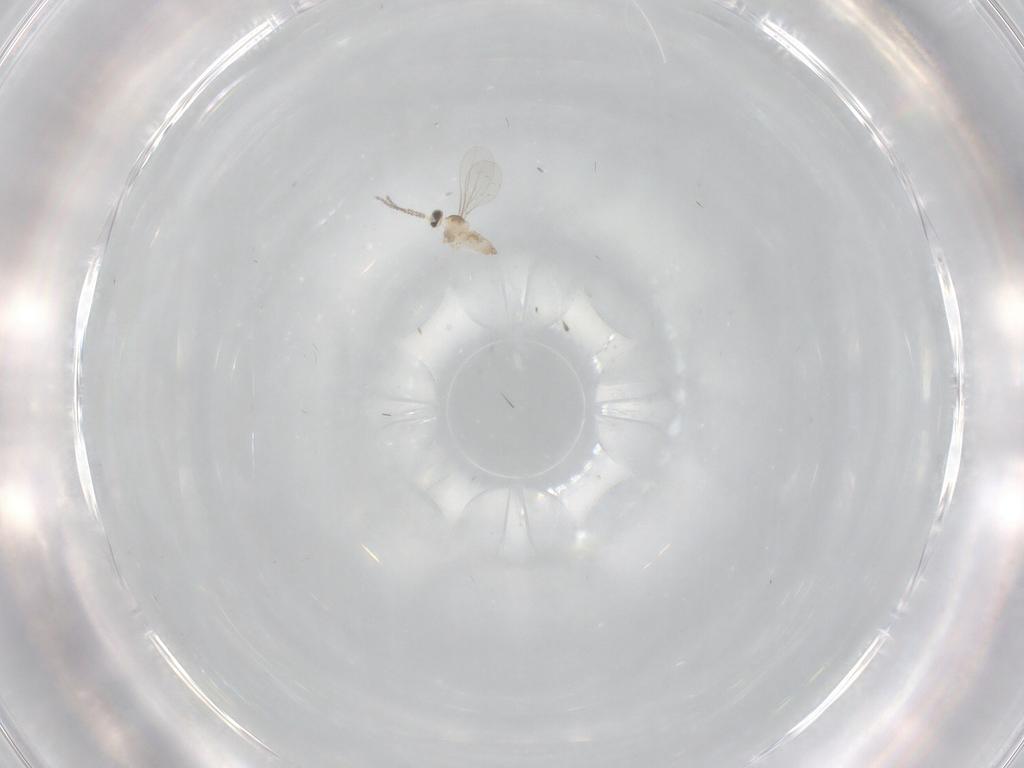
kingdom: Animalia
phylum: Arthropoda
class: Insecta
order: Diptera
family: Cecidomyiidae
